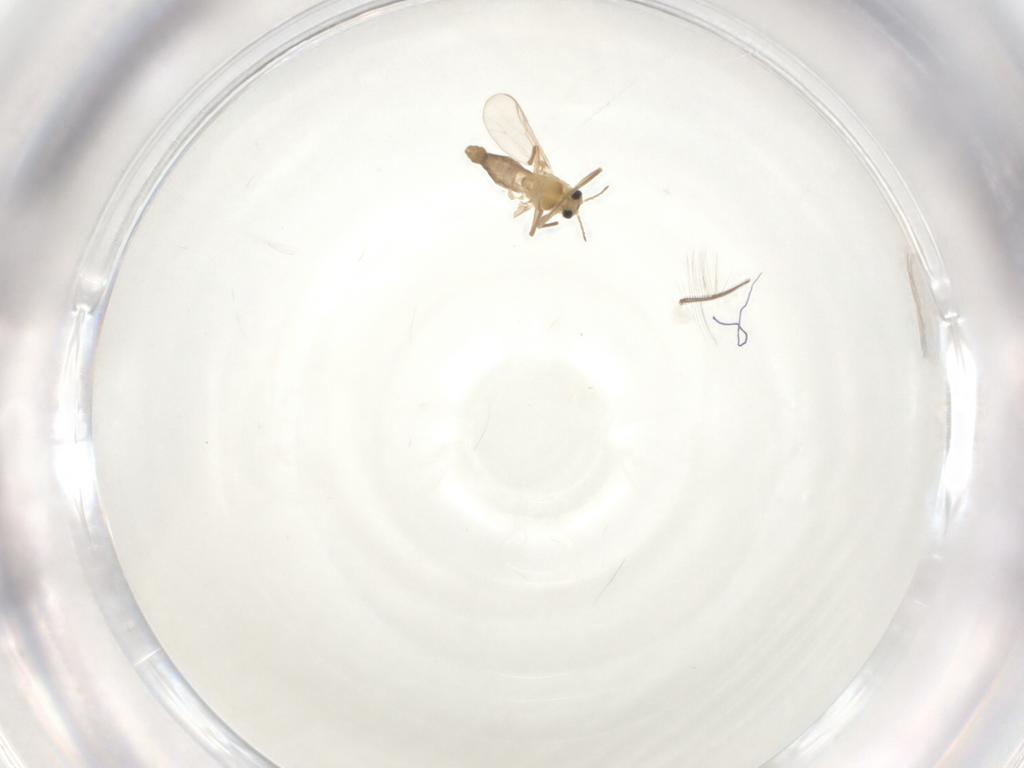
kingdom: Animalia
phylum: Arthropoda
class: Insecta
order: Diptera
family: Chironomidae
